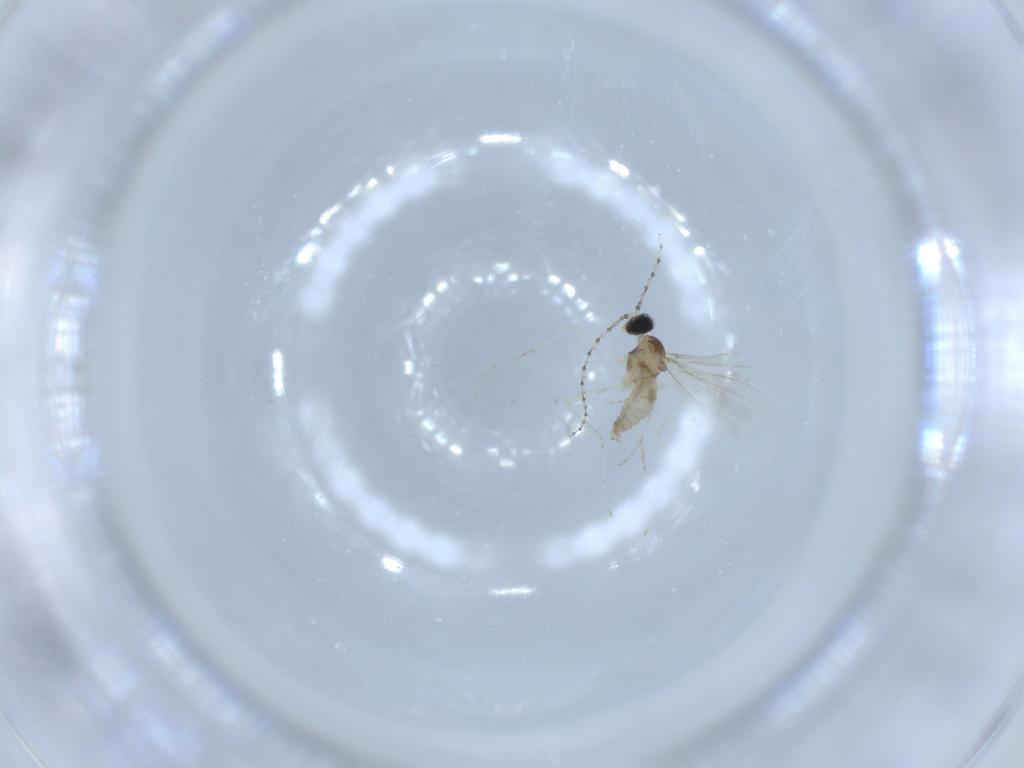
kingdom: Animalia
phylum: Arthropoda
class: Insecta
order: Diptera
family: Cecidomyiidae
